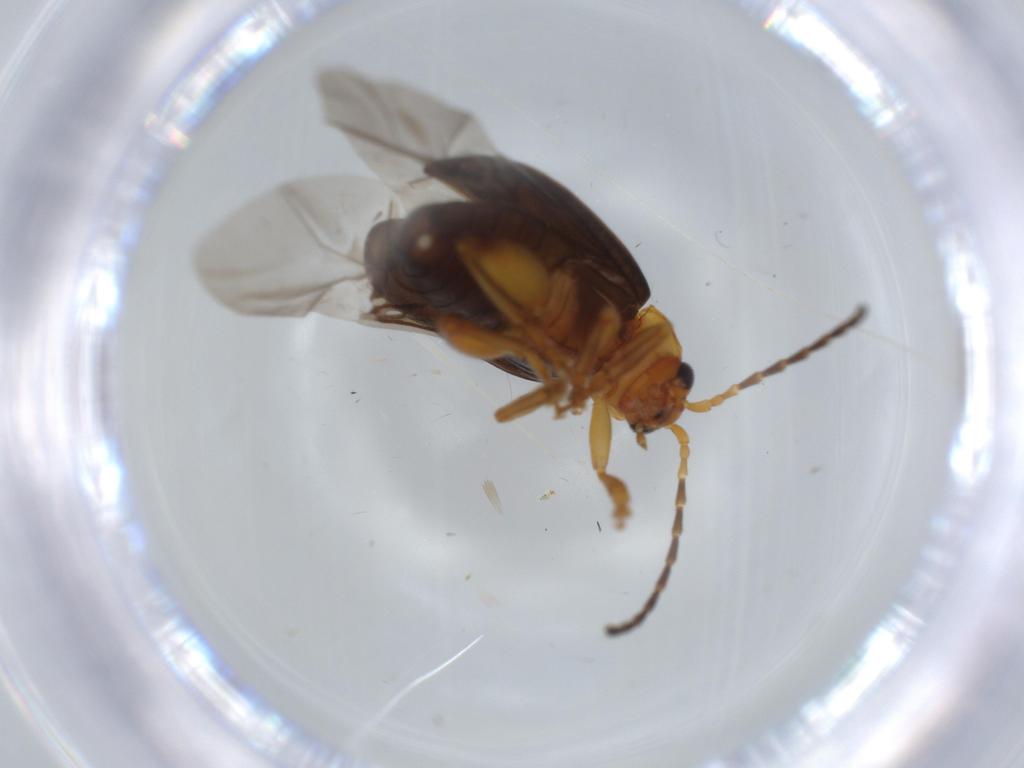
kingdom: Animalia
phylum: Arthropoda
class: Insecta
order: Coleoptera
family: Chrysomelidae
